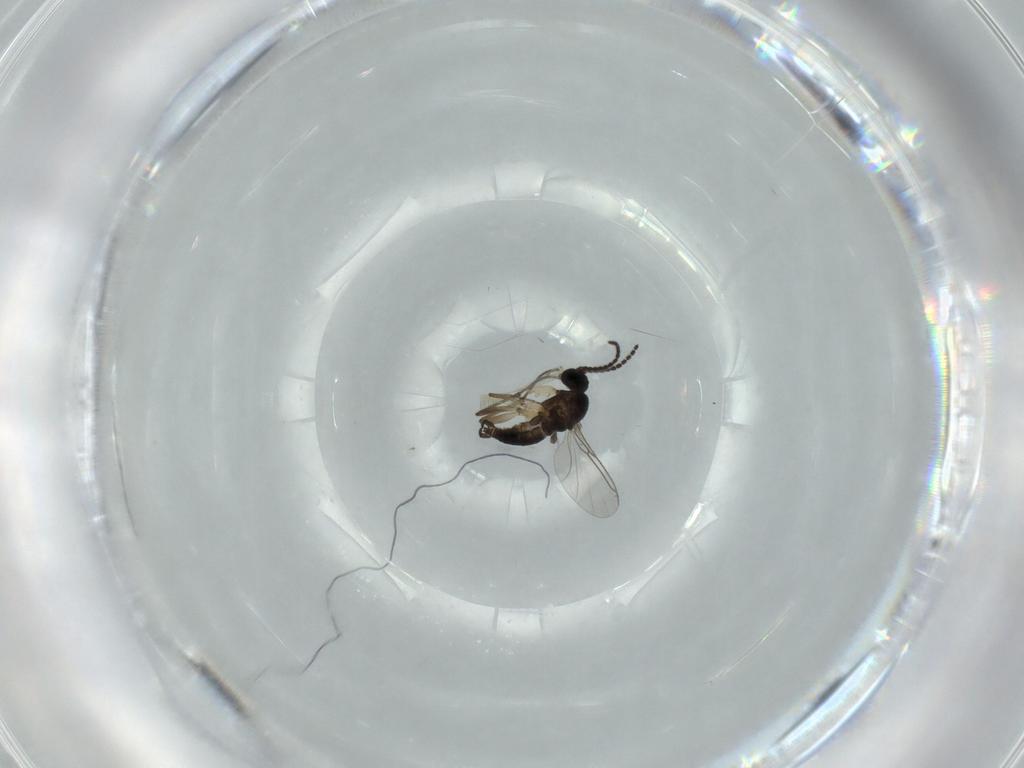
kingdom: Animalia
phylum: Arthropoda
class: Insecta
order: Diptera
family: Sciaridae
